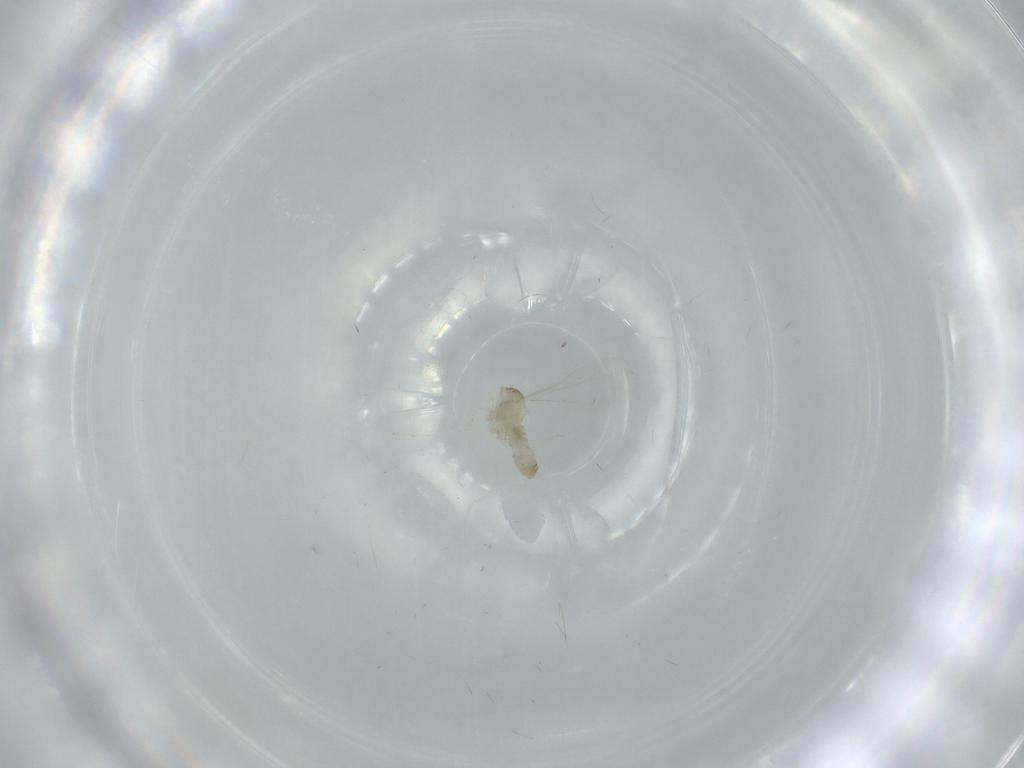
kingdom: Animalia
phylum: Arthropoda
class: Insecta
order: Diptera
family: Cecidomyiidae
